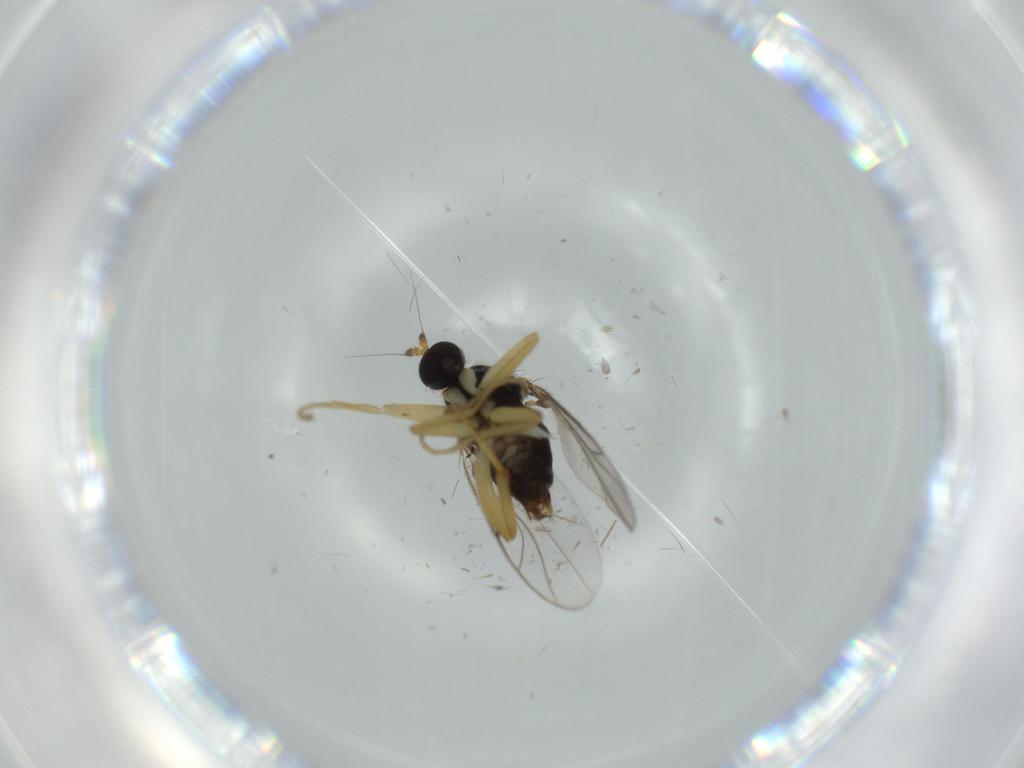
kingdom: Animalia
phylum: Arthropoda
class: Insecta
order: Diptera
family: Hybotidae
